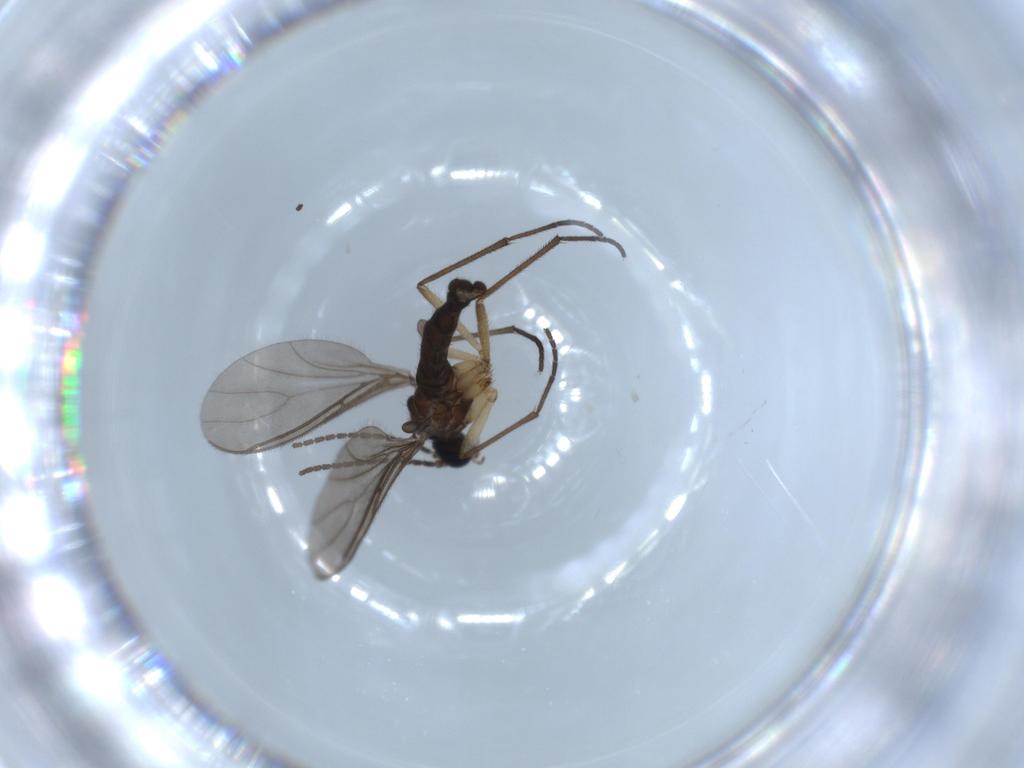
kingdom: Animalia
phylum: Arthropoda
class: Insecta
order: Diptera
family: Sciaridae
